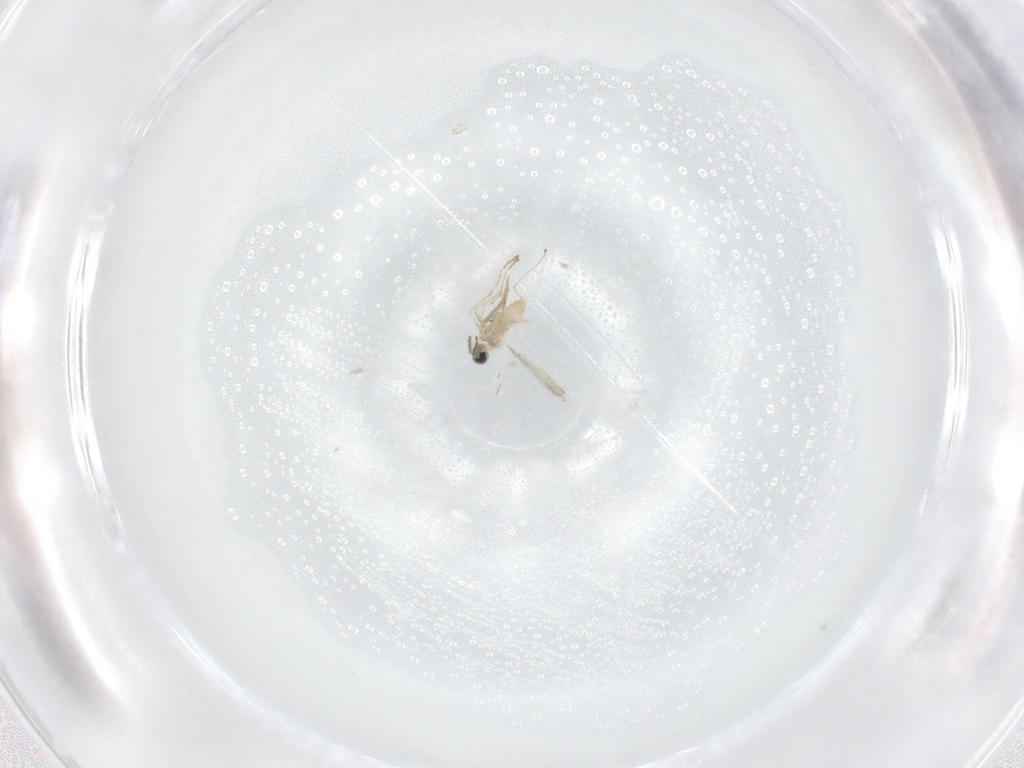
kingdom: Animalia
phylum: Arthropoda
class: Insecta
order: Diptera
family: Cecidomyiidae
